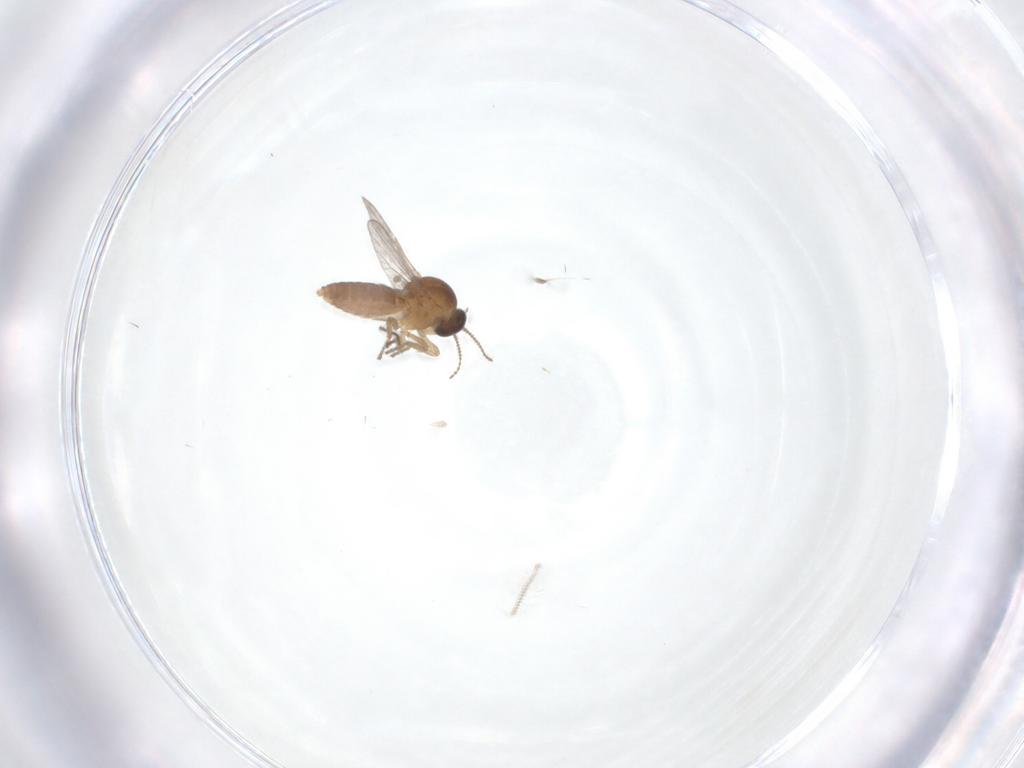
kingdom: Animalia
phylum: Arthropoda
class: Insecta
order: Diptera
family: Ceratopogonidae
